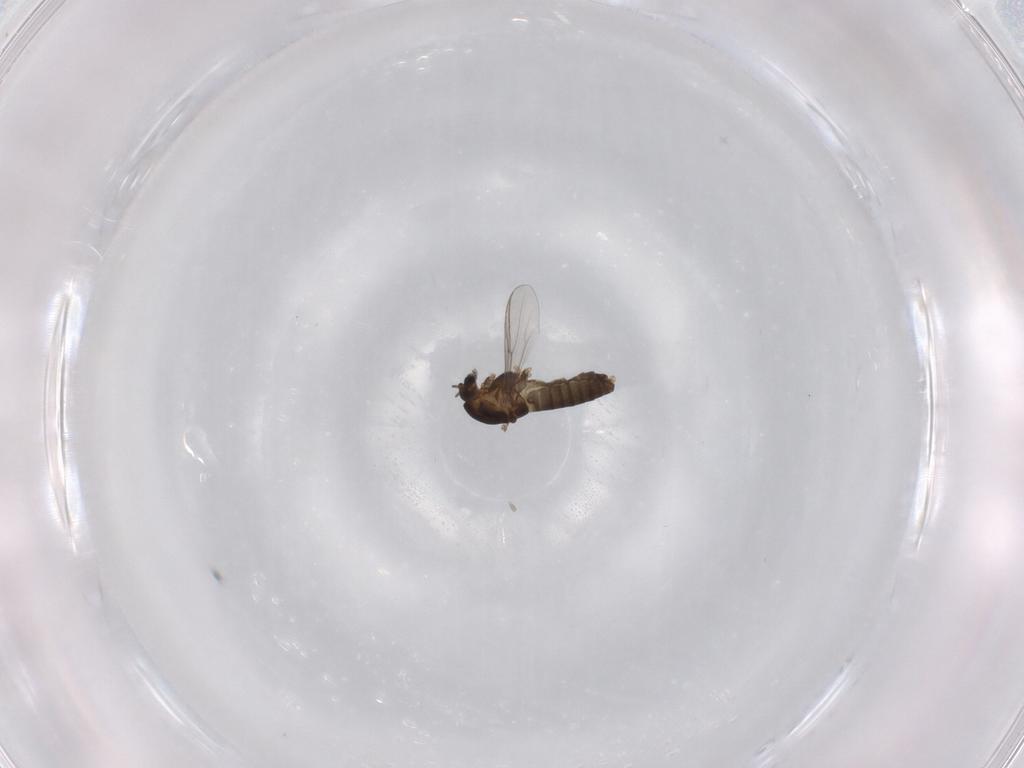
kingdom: Animalia
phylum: Arthropoda
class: Insecta
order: Diptera
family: Chironomidae
